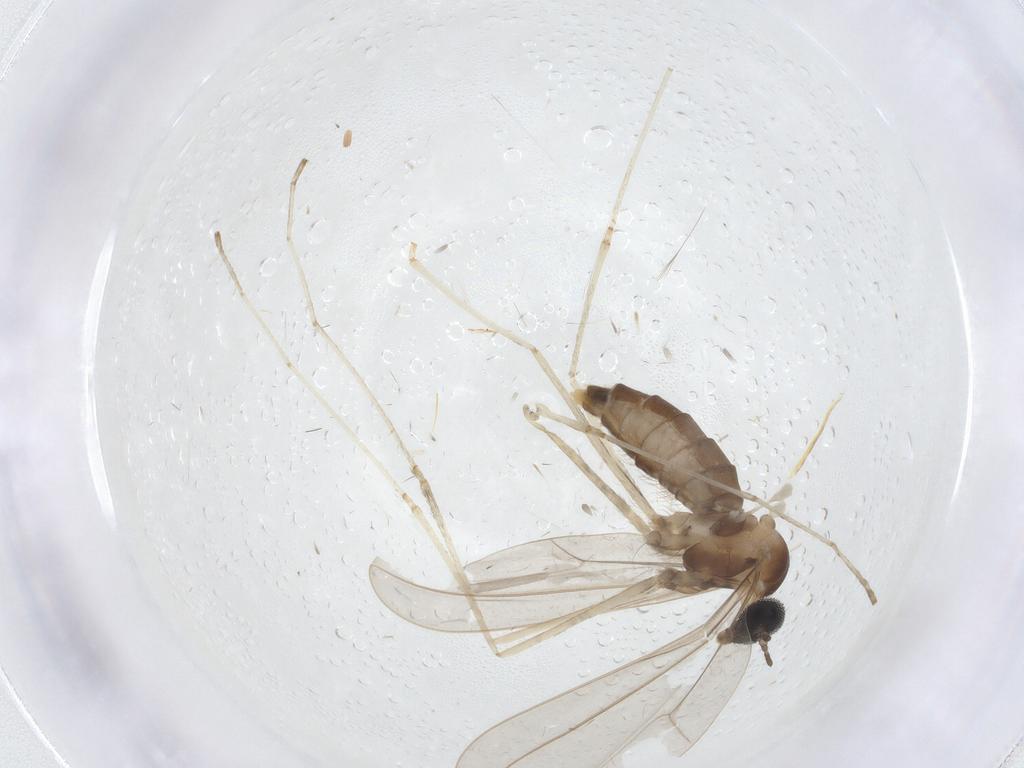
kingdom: Animalia
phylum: Arthropoda
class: Insecta
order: Diptera
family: Cecidomyiidae
